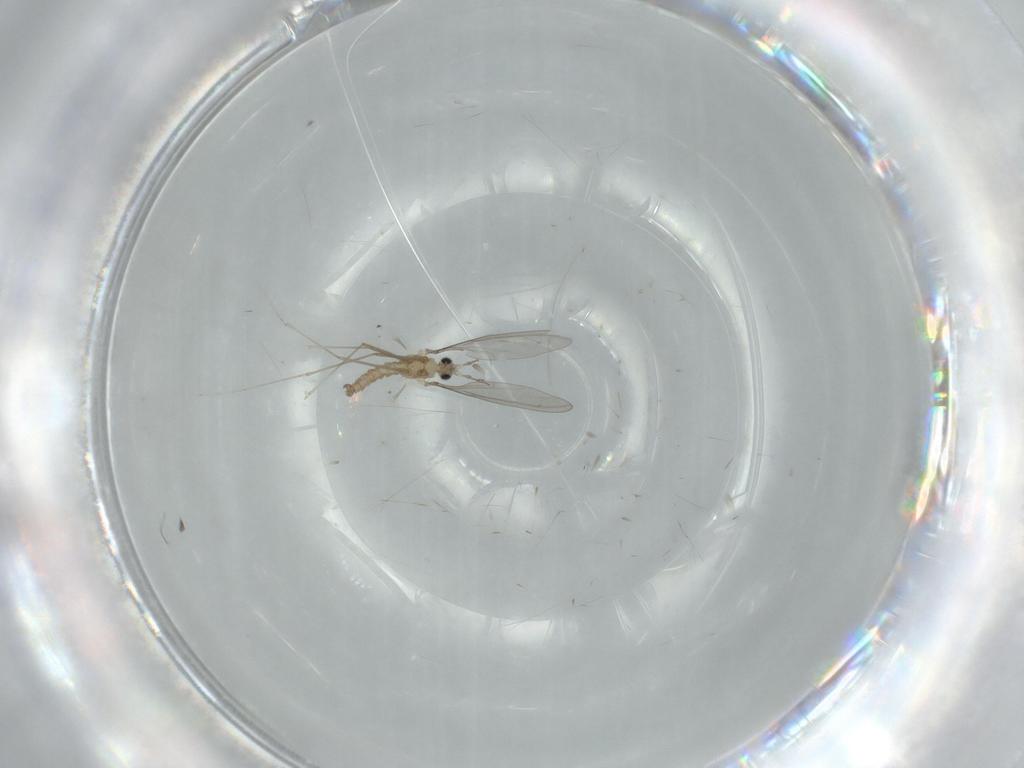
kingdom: Animalia
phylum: Arthropoda
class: Insecta
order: Diptera
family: Cecidomyiidae
